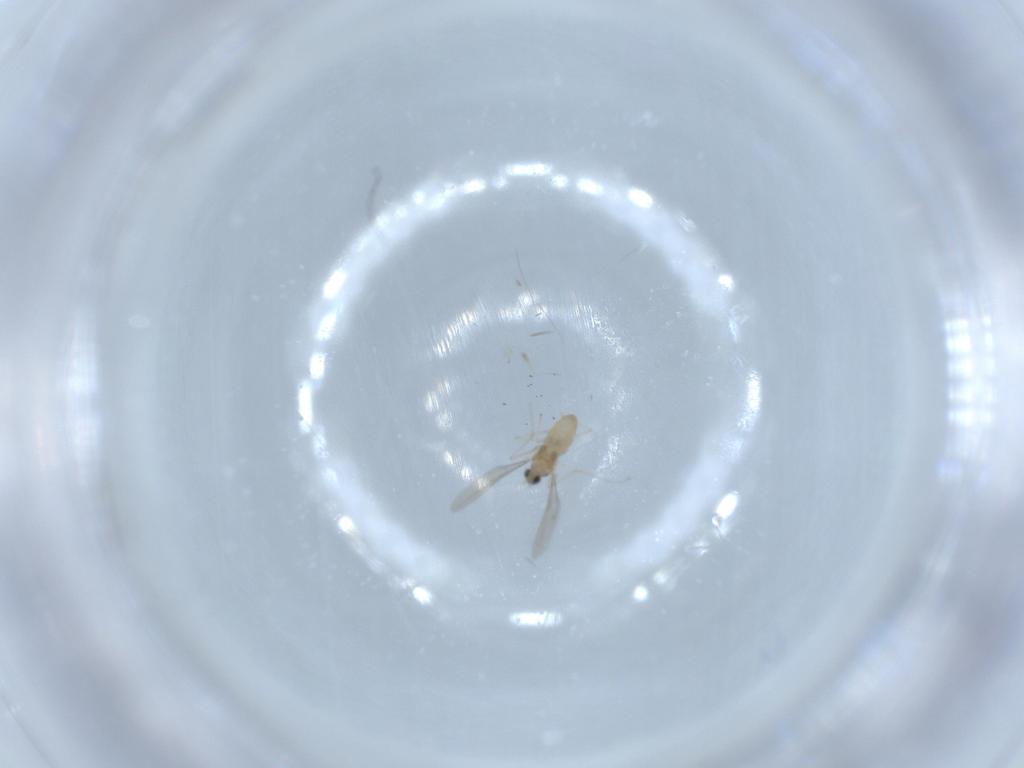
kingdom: Animalia
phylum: Arthropoda
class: Insecta
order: Diptera
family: Cecidomyiidae
